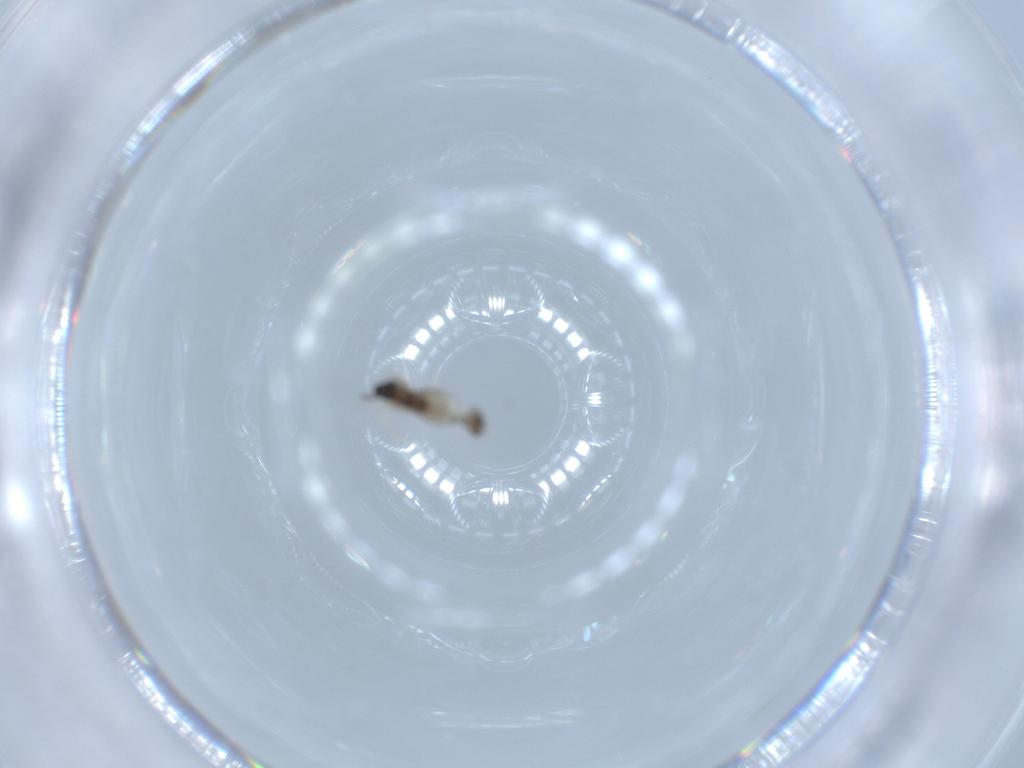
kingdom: Animalia
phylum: Arthropoda
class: Insecta
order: Diptera
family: Cecidomyiidae
